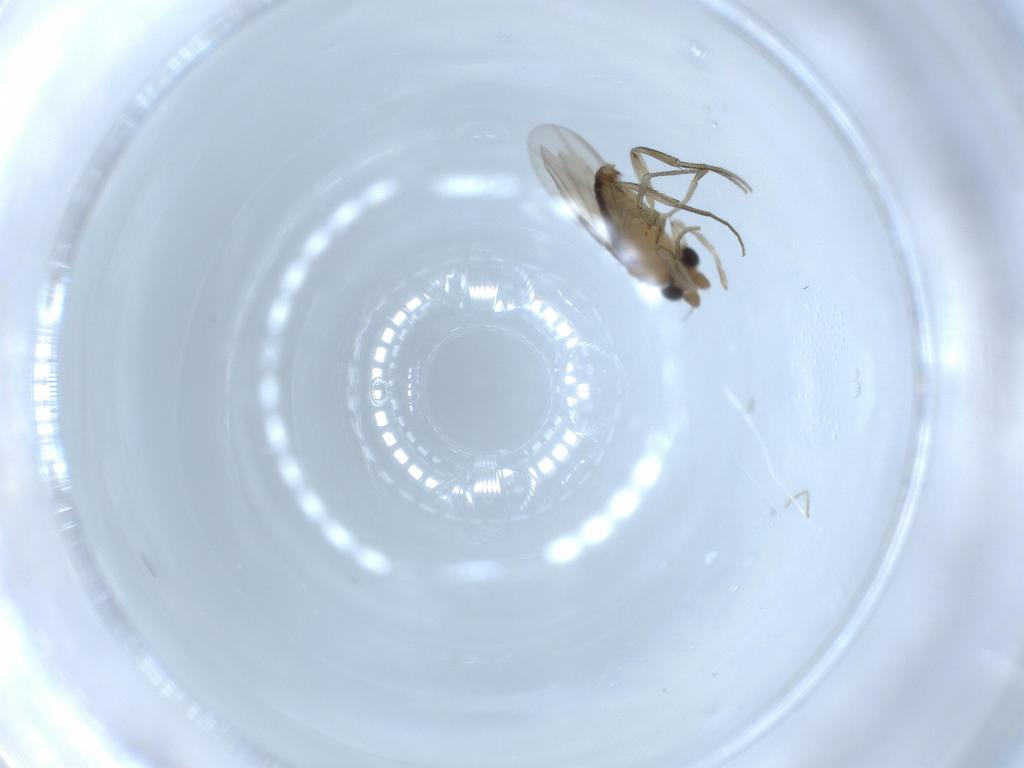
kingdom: Animalia
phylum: Arthropoda
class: Insecta
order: Diptera
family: Phoridae
